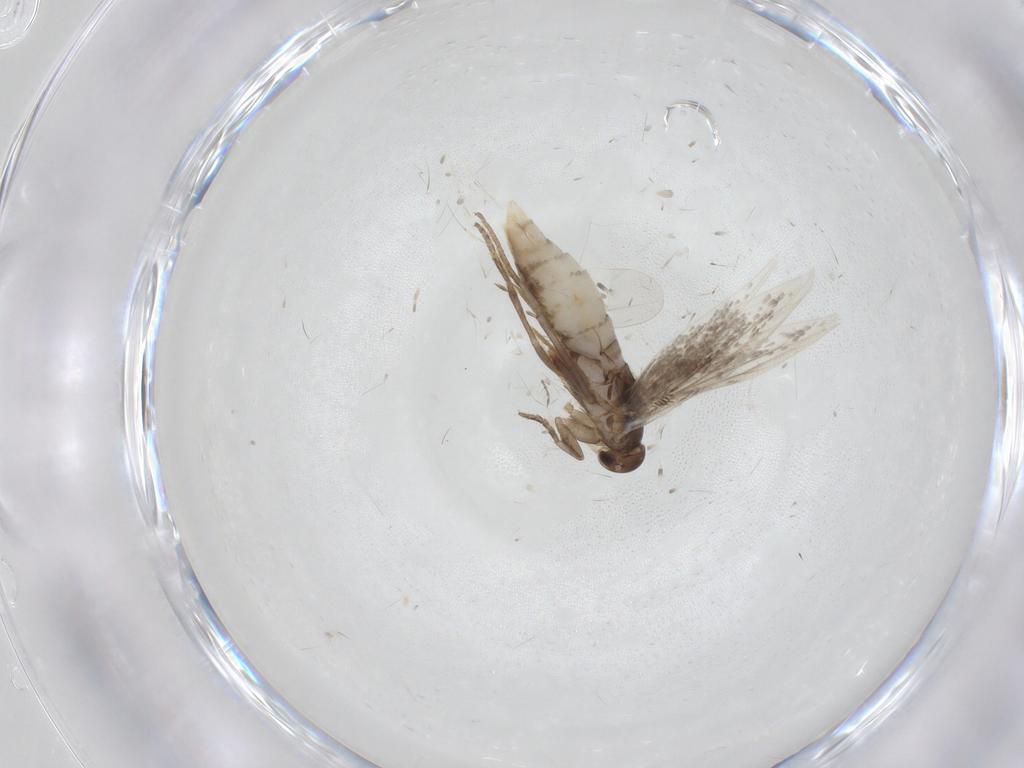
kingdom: Animalia
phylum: Arthropoda
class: Insecta
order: Lepidoptera
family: Elachistidae
